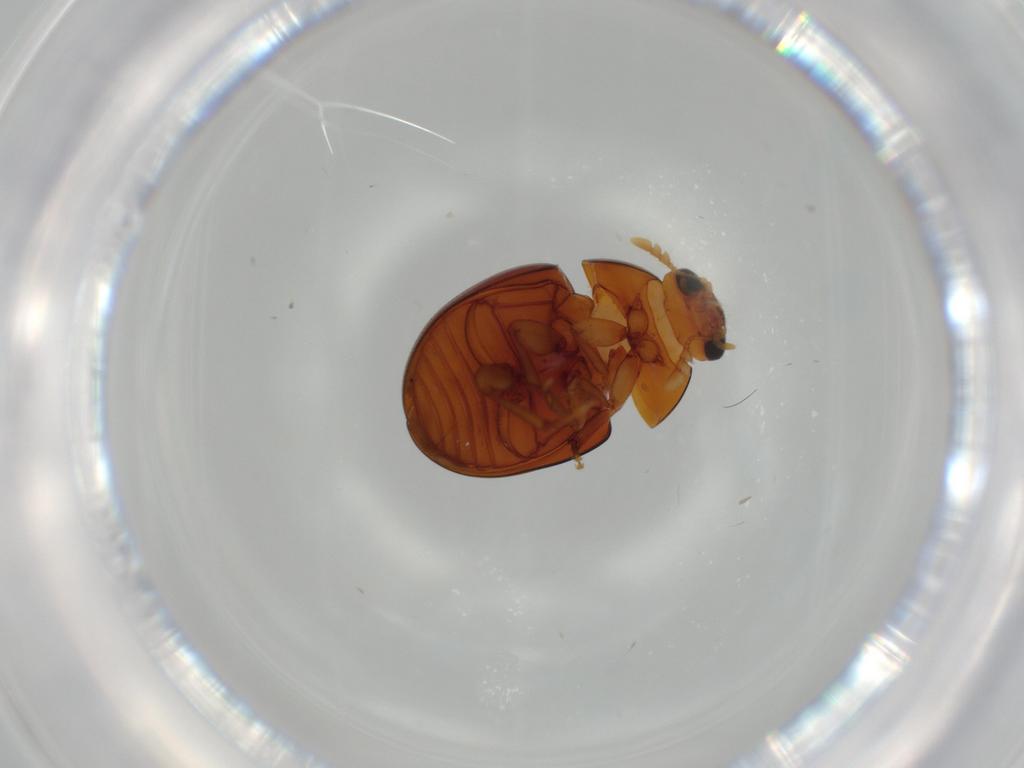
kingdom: Animalia
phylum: Arthropoda
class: Insecta
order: Coleoptera
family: Phalacridae
